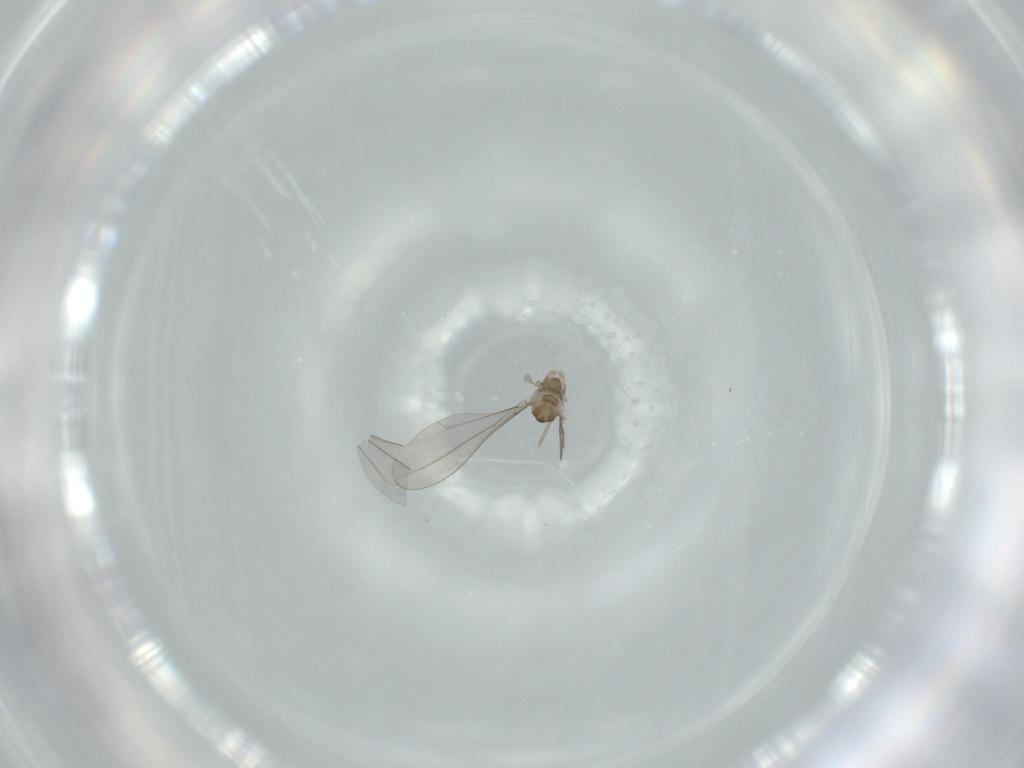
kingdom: Animalia
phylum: Arthropoda
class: Insecta
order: Diptera
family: Cecidomyiidae
